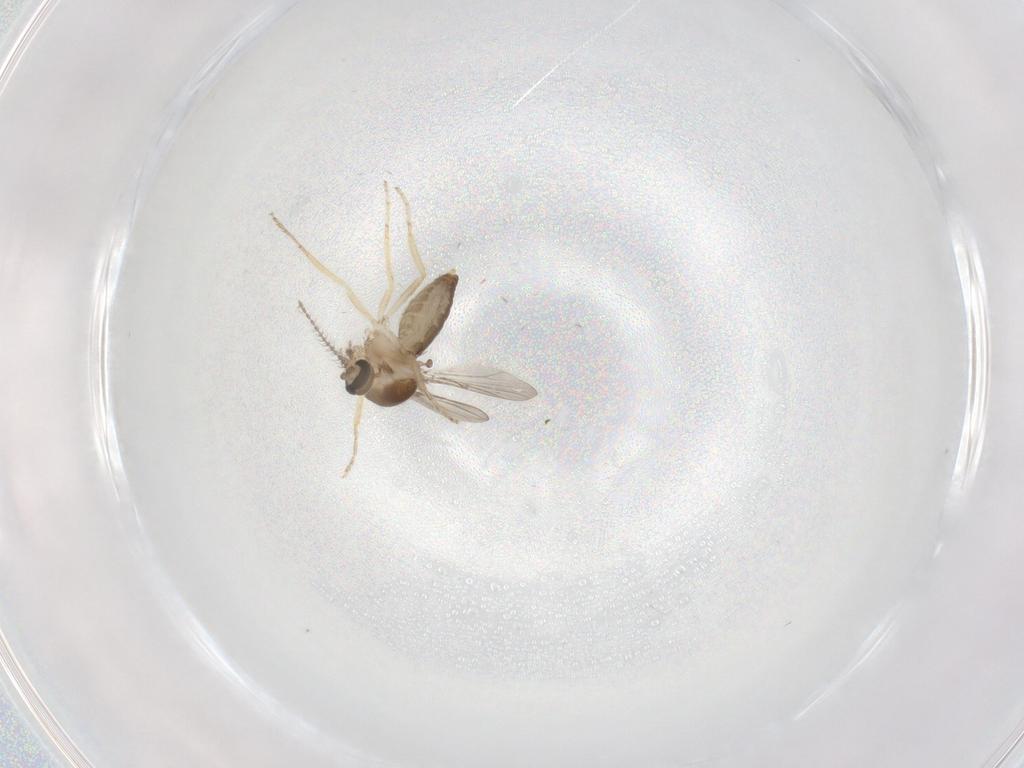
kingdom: Animalia
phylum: Arthropoda
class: Insecta
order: Diptera
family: Ceratopogonidae
